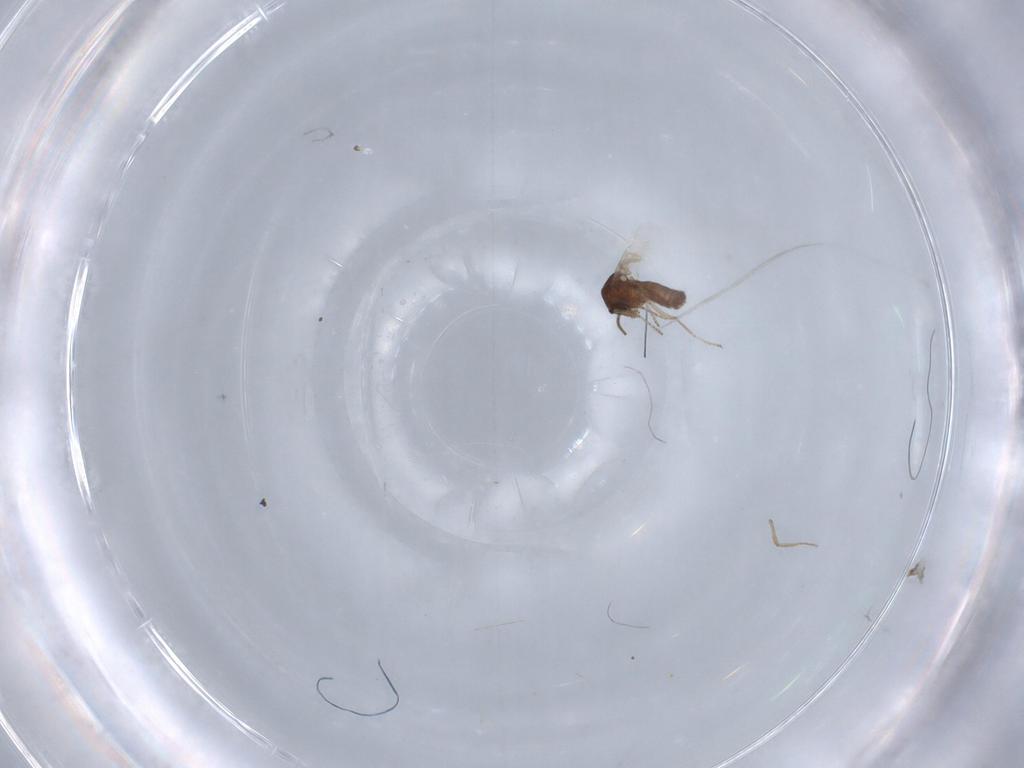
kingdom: Animalia
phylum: Arthropoda
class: Insecta
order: Diptera
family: Ceratopogonidae
